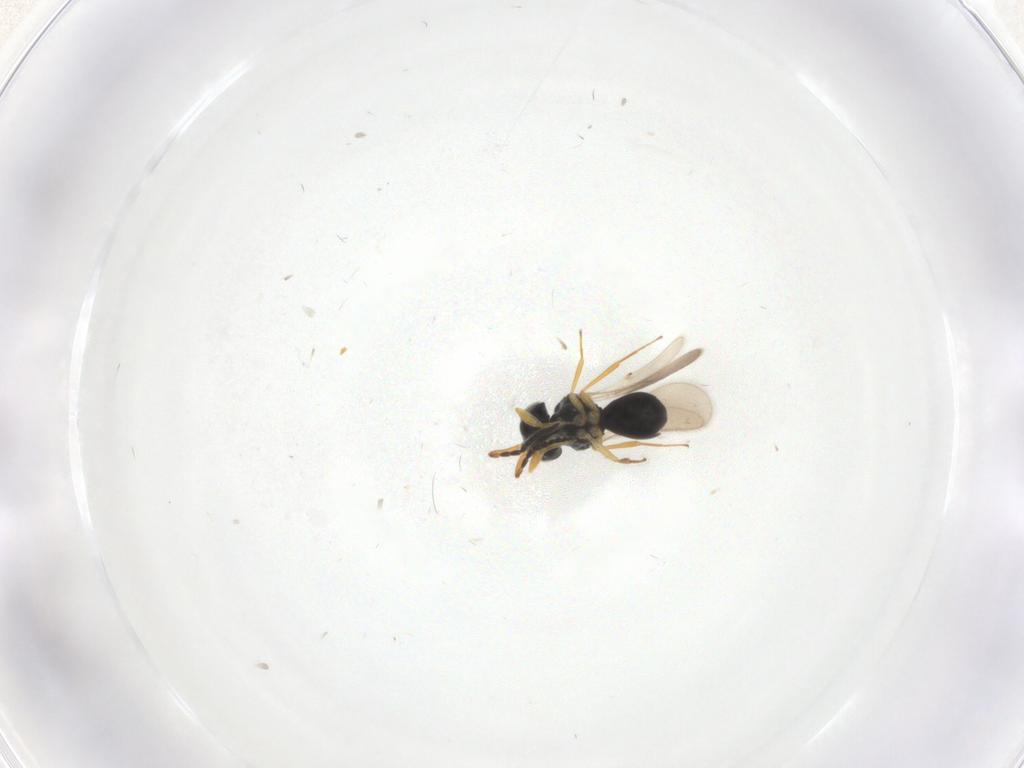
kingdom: Animalia
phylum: Arthropoda
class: Insecta
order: Hymenoptera
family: Scelionidae
